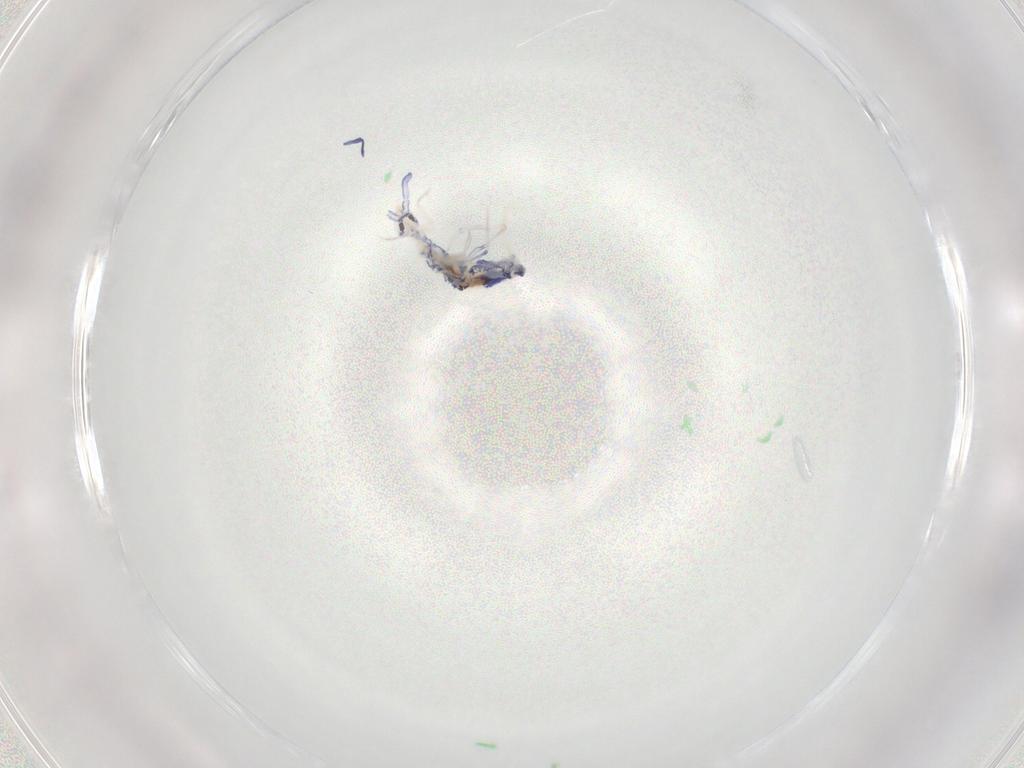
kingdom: Animalia
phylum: Arthropoda
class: Collembola
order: Entomobryomorpha
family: Entomobryidae
